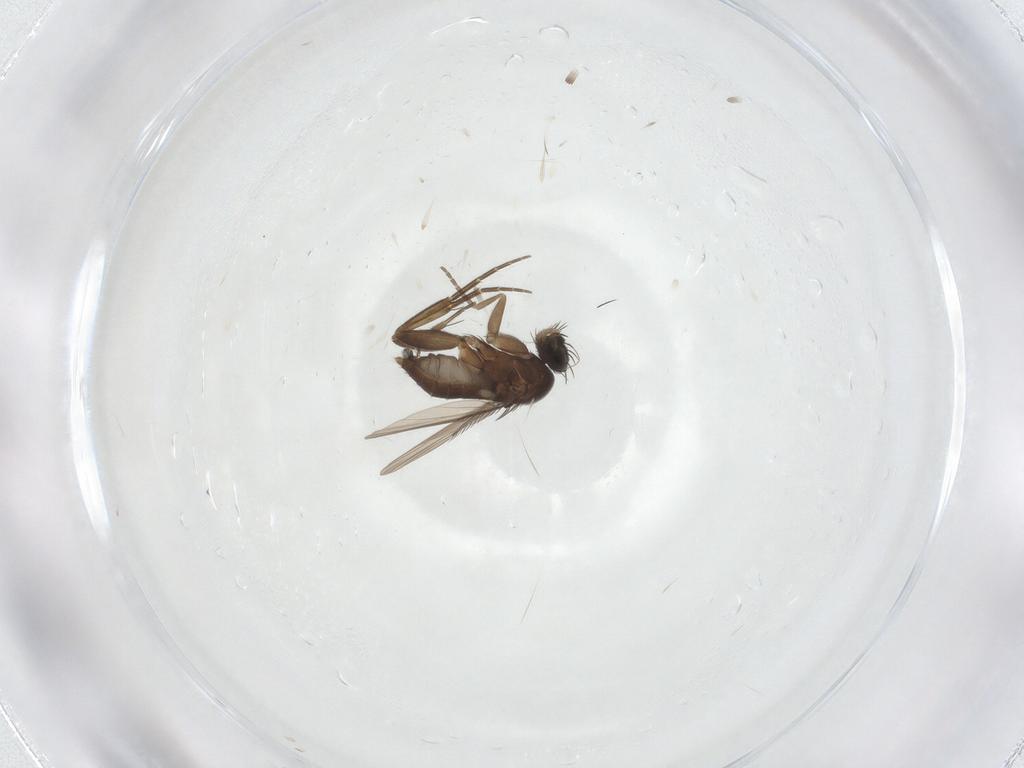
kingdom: Animalia
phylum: Arthropoda
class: Insecta
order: Diptera
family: Phoridae
